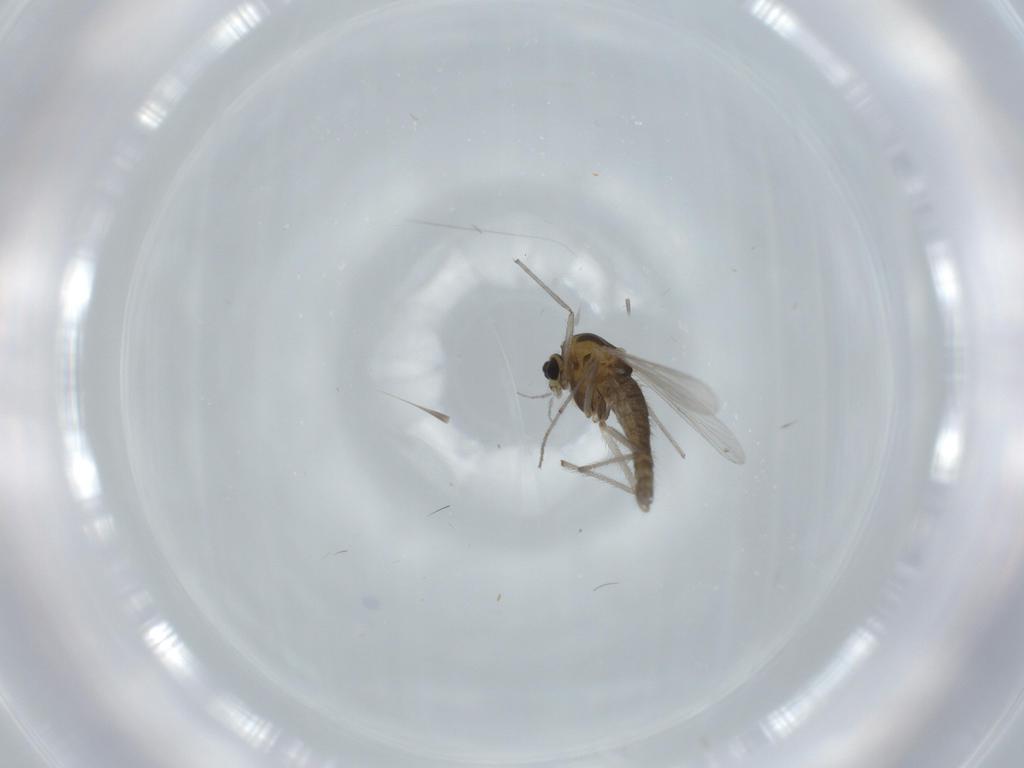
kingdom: Animalia
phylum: Arthropoda
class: Insecta
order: Diptera
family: Chironomidae
